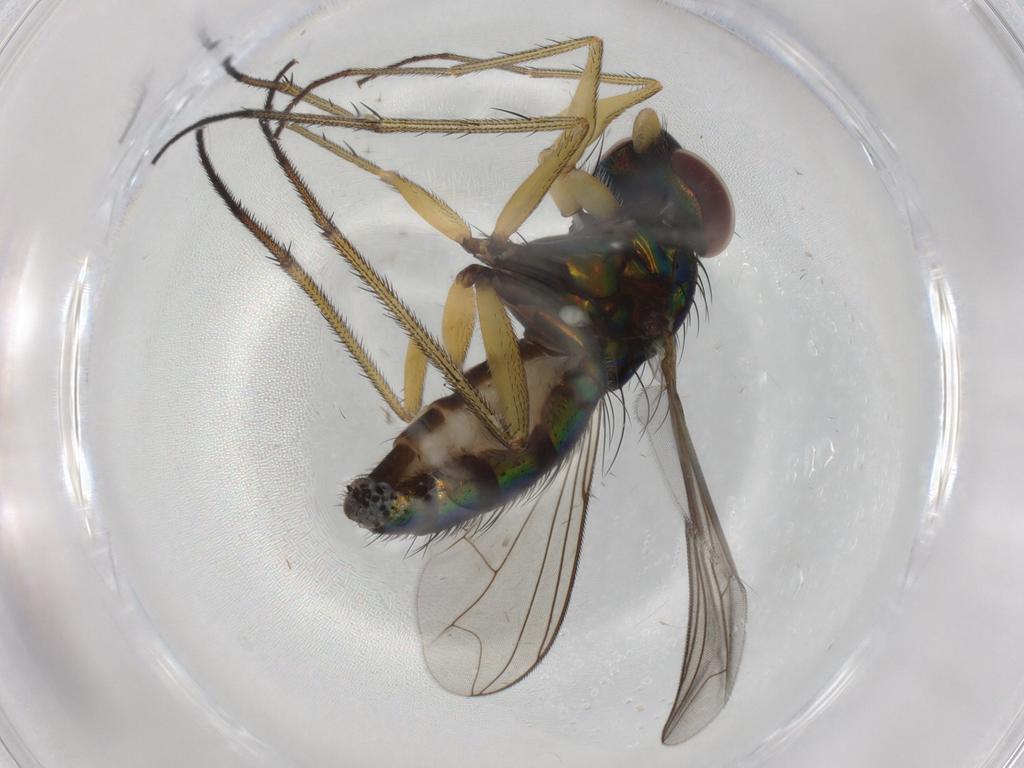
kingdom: Animalia
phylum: Arthropoda
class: Insecta
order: Diptera
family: Dolichopodidae
